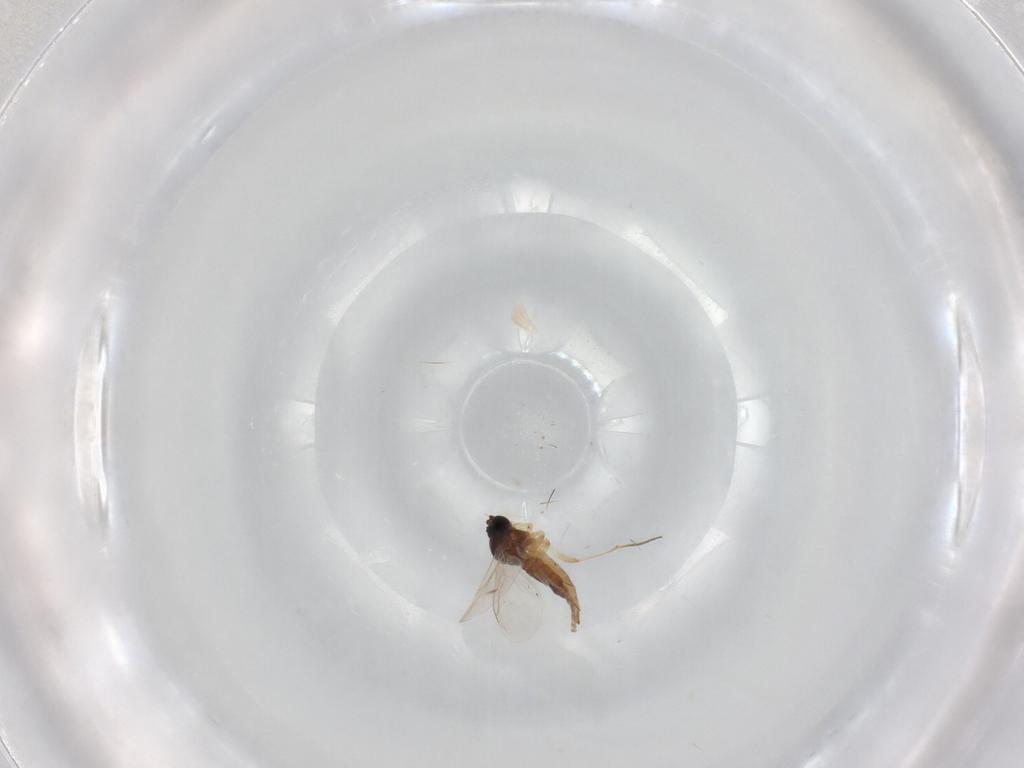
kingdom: Animalia
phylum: Arthropoda
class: Insecta
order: Diptera
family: Sciaridae
